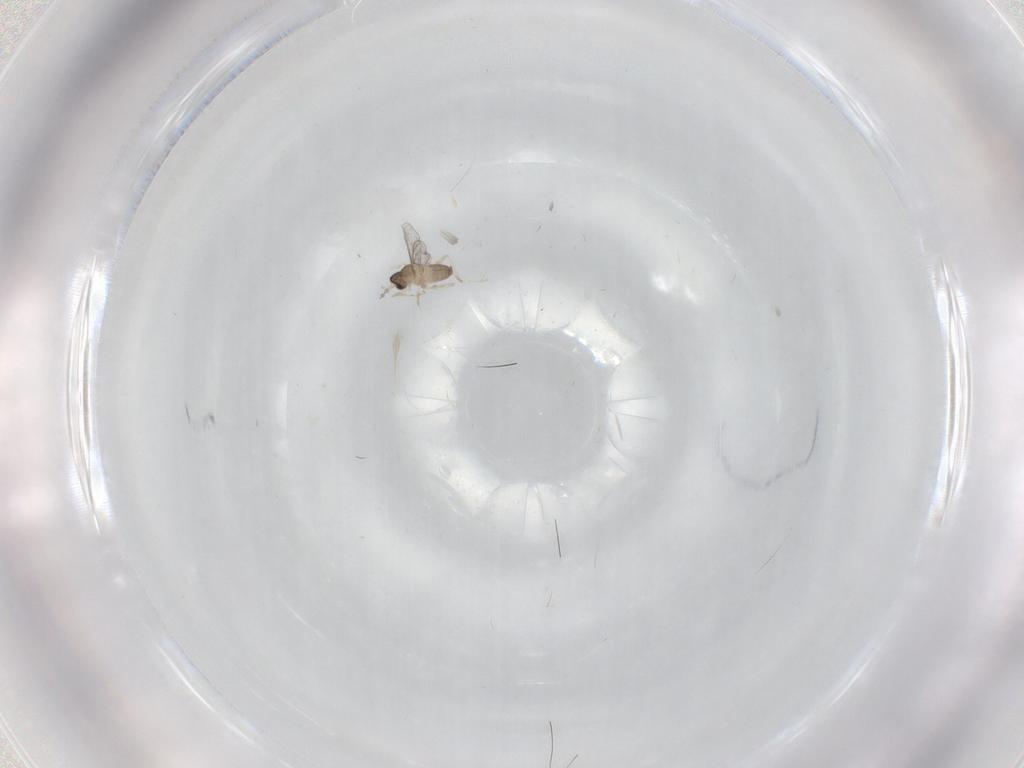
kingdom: Animalia
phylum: Arthropoda
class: Insecta
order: Diptera
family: Cecidomyiidae
